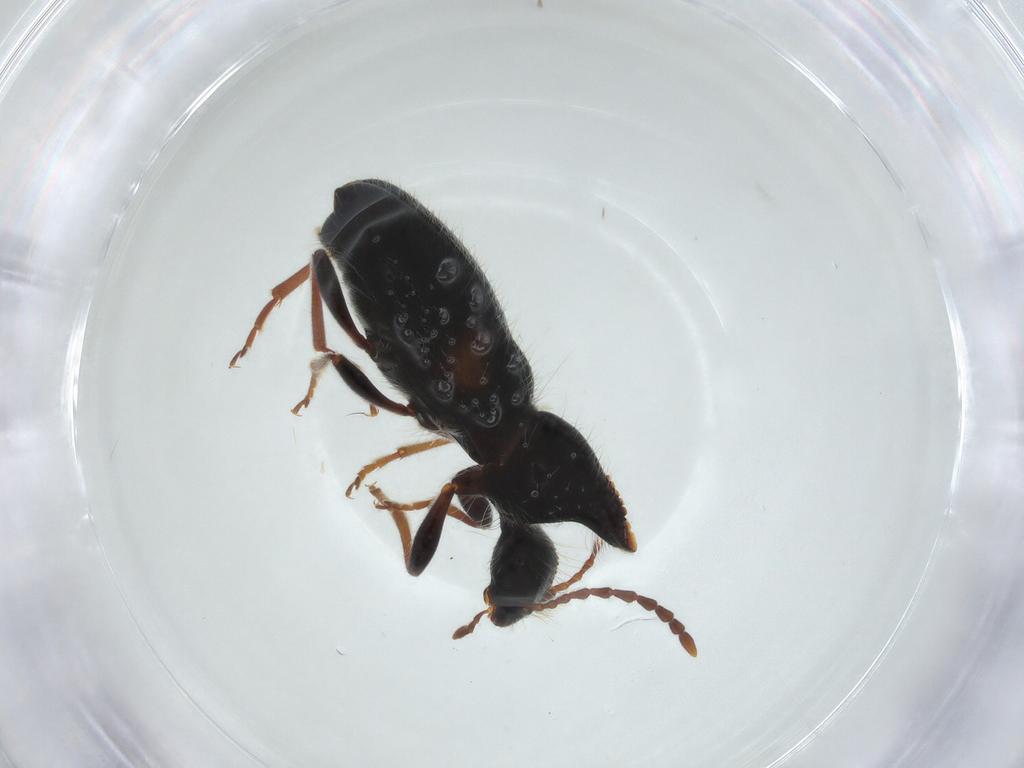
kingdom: Animalia
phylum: Arthropoda
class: Insecta
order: Coleoptera
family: Anthicidae
